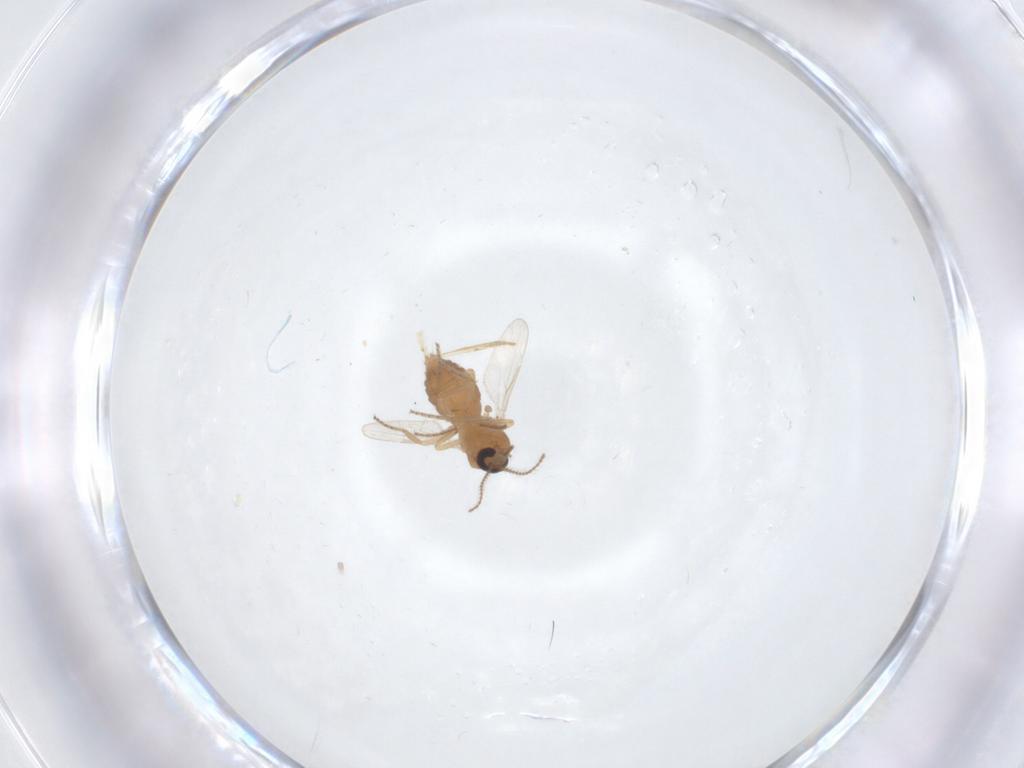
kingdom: Animalia
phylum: Arthropoda
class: Insecta
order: Diptera
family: Ceratopogonidae
